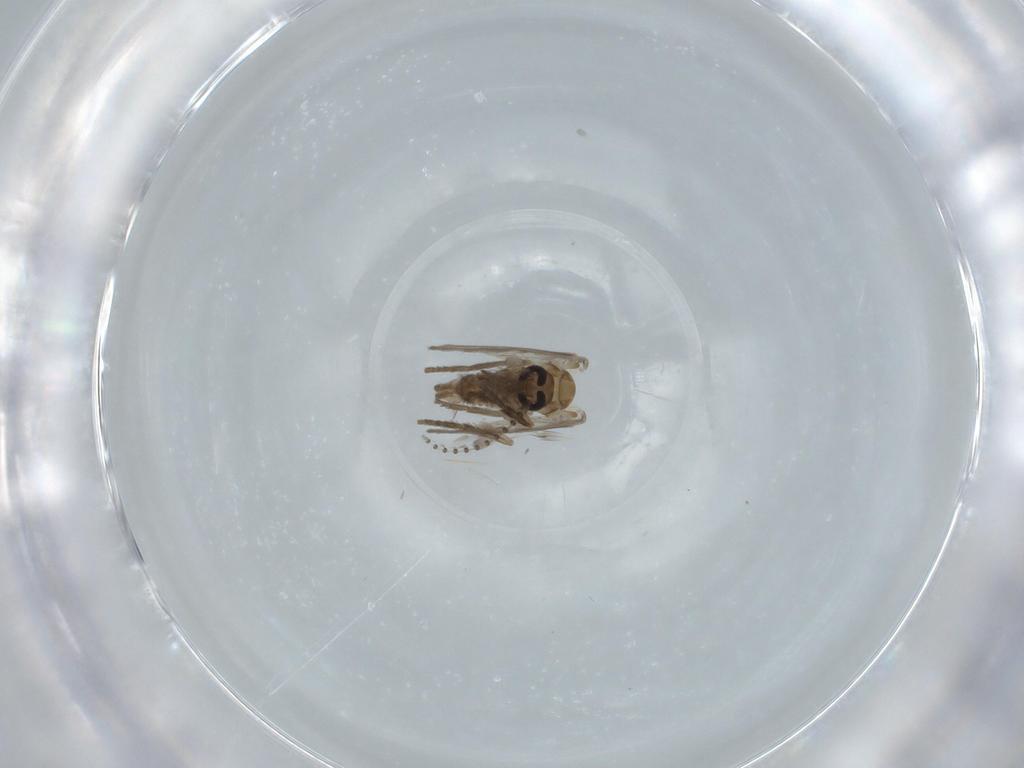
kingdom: Animalia
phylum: Arthropoda
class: Insecta
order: Diptera
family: Psychodidae
